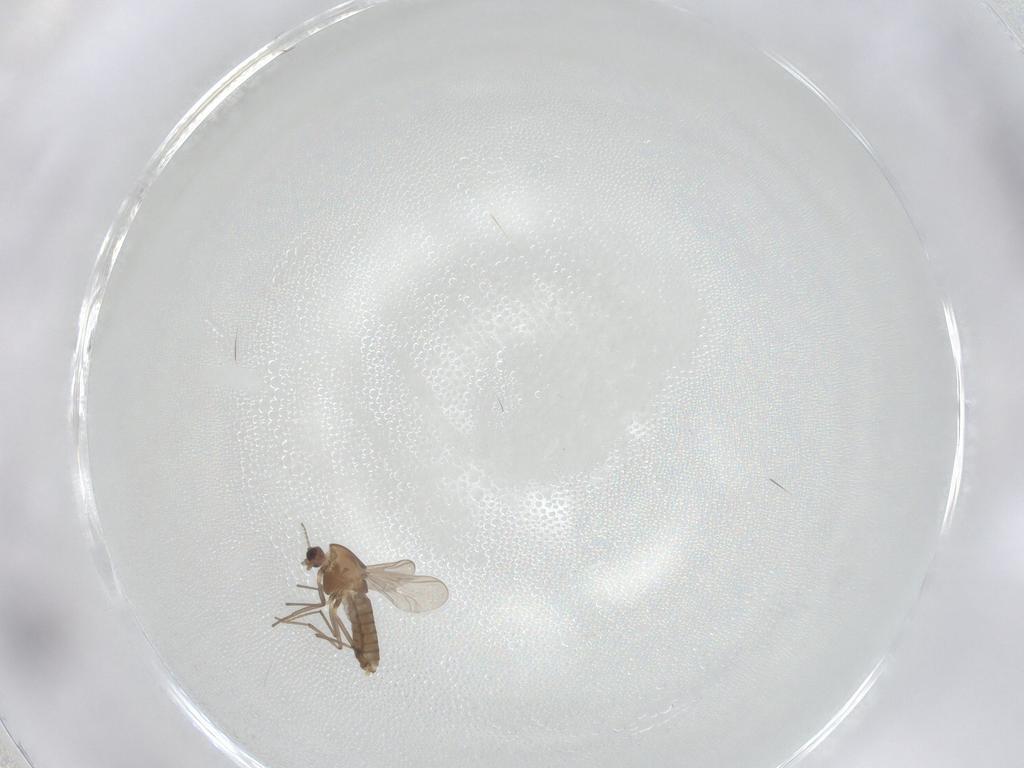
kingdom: Animalia
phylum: Arthropoda
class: Insecta
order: Diptera
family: Chironomidae
